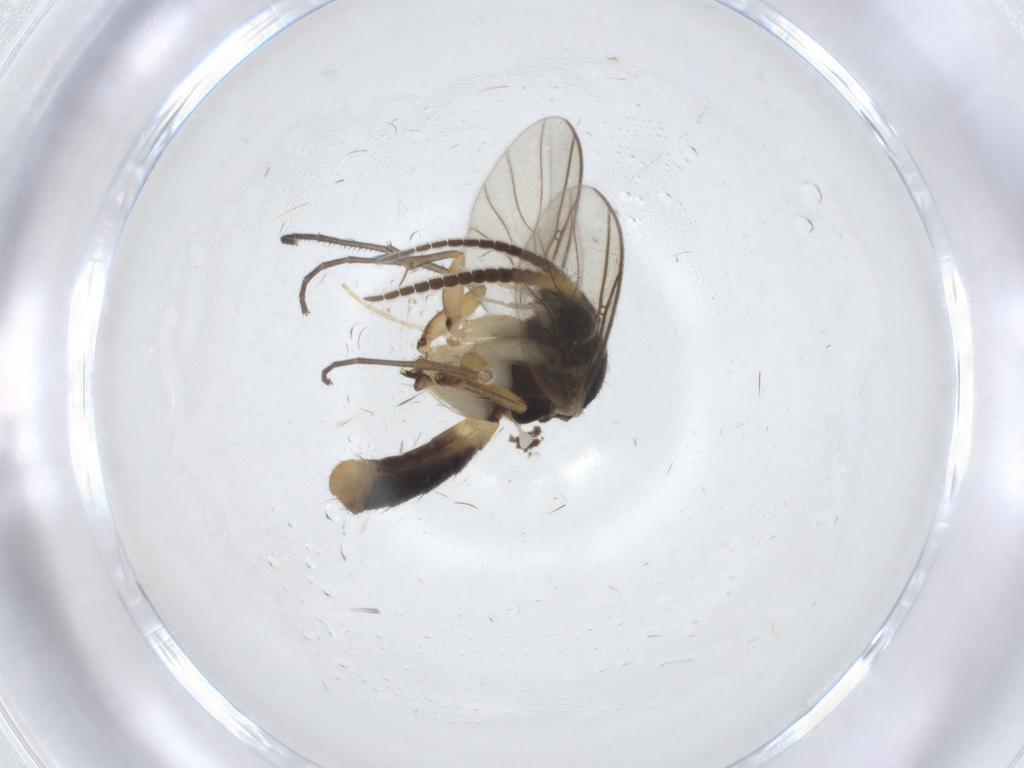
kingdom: Animalia
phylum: Arthropoda
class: Insecta
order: Diptera
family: Mycetophilidae
